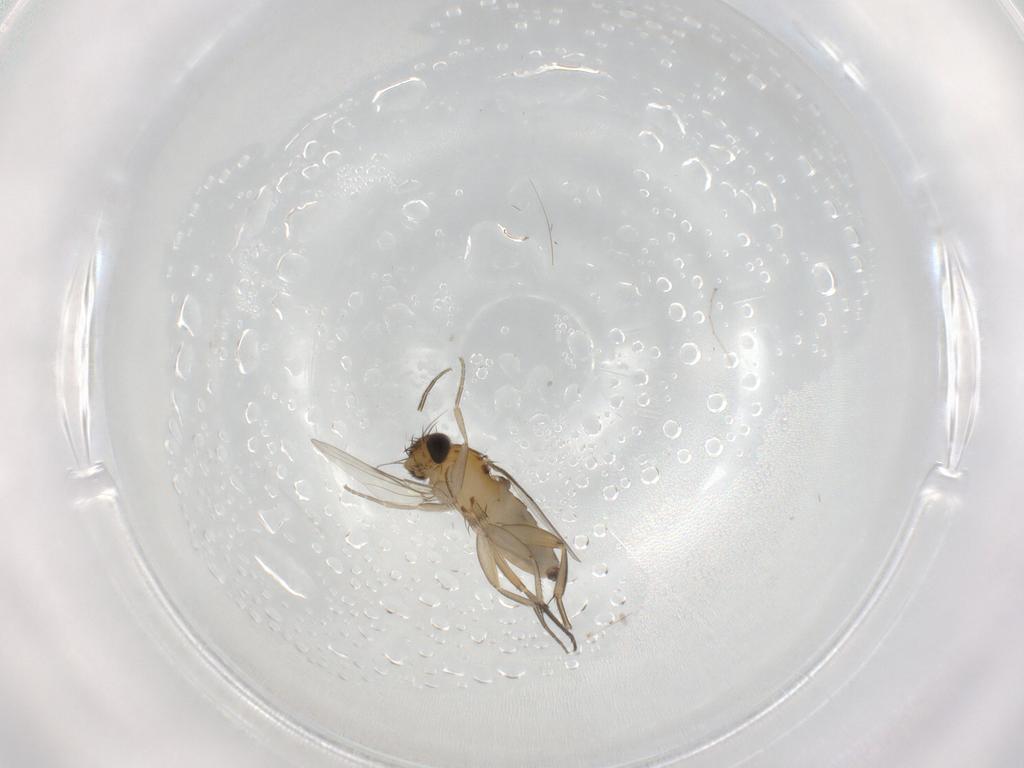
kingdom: Animalia
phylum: Arthropoda
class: Insecta
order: Diptera
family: Phoridae
